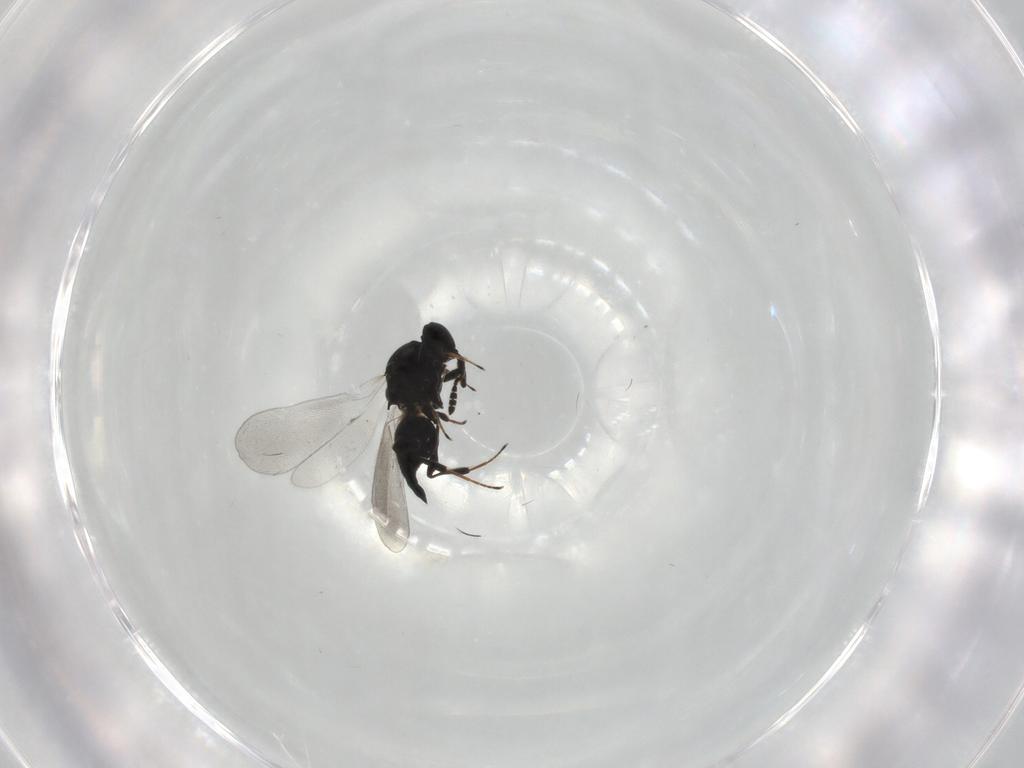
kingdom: Animalia
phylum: Arthropoda
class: Insecta
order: Hymenoptera
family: Platygastridae
